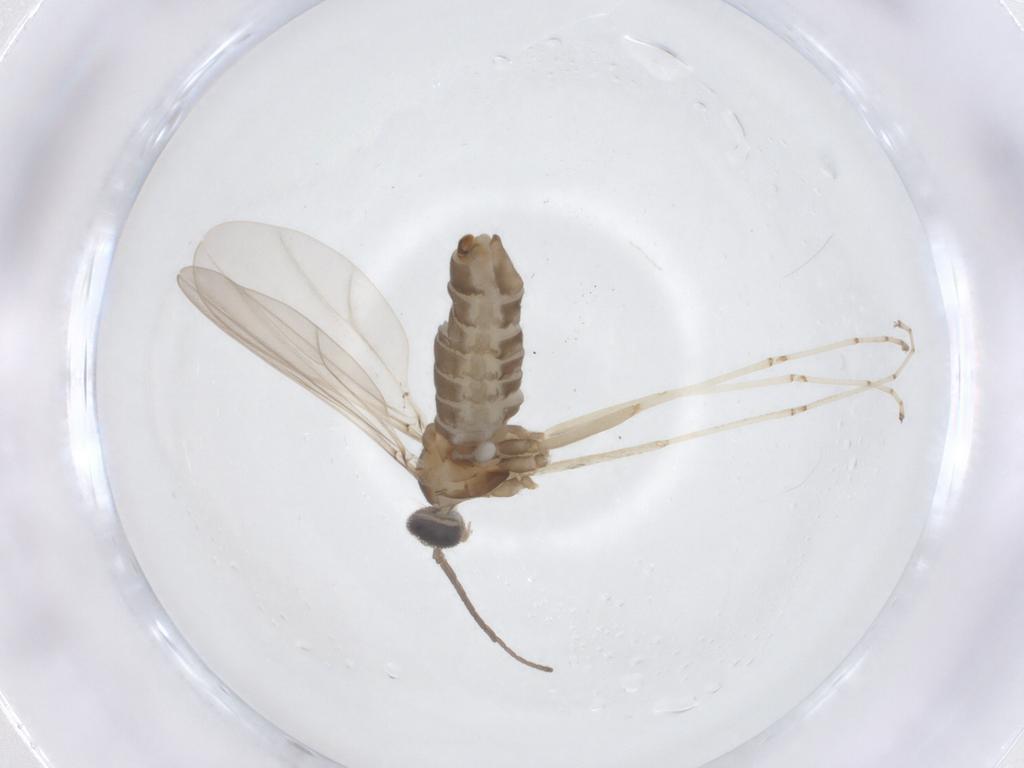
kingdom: Animalia
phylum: Arthropoda
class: Insecta
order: Diptera
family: Cecidomyiidae
